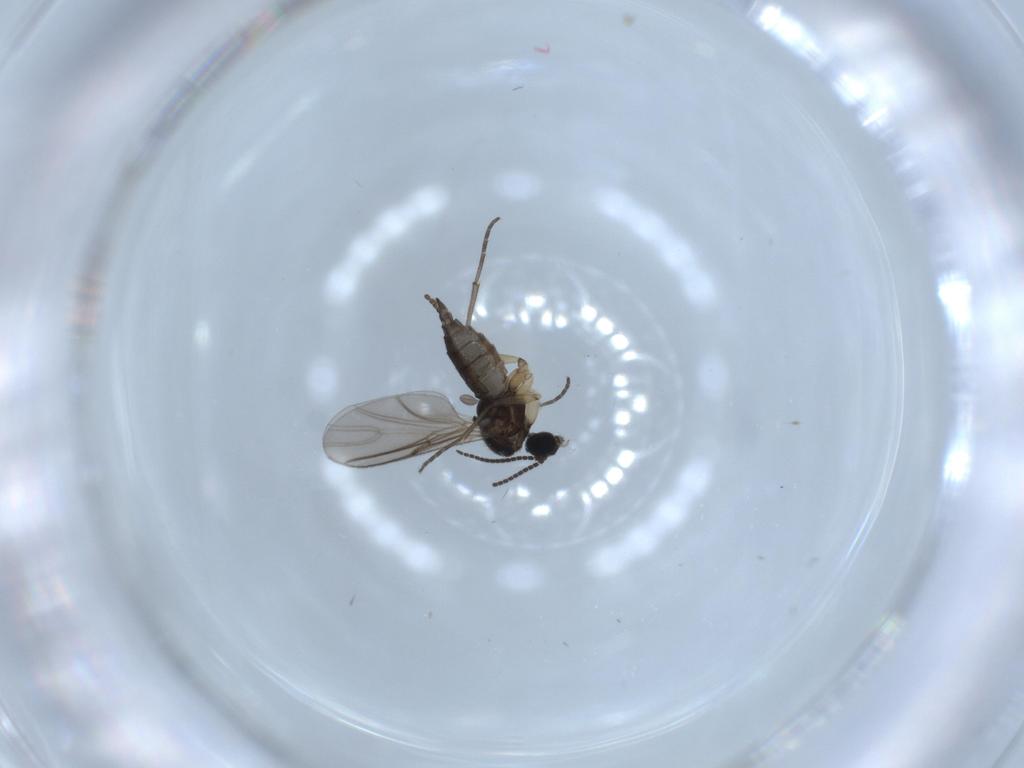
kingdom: Animalia
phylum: Arthropoda
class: Insecta
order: Diptera
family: Sciaridae
